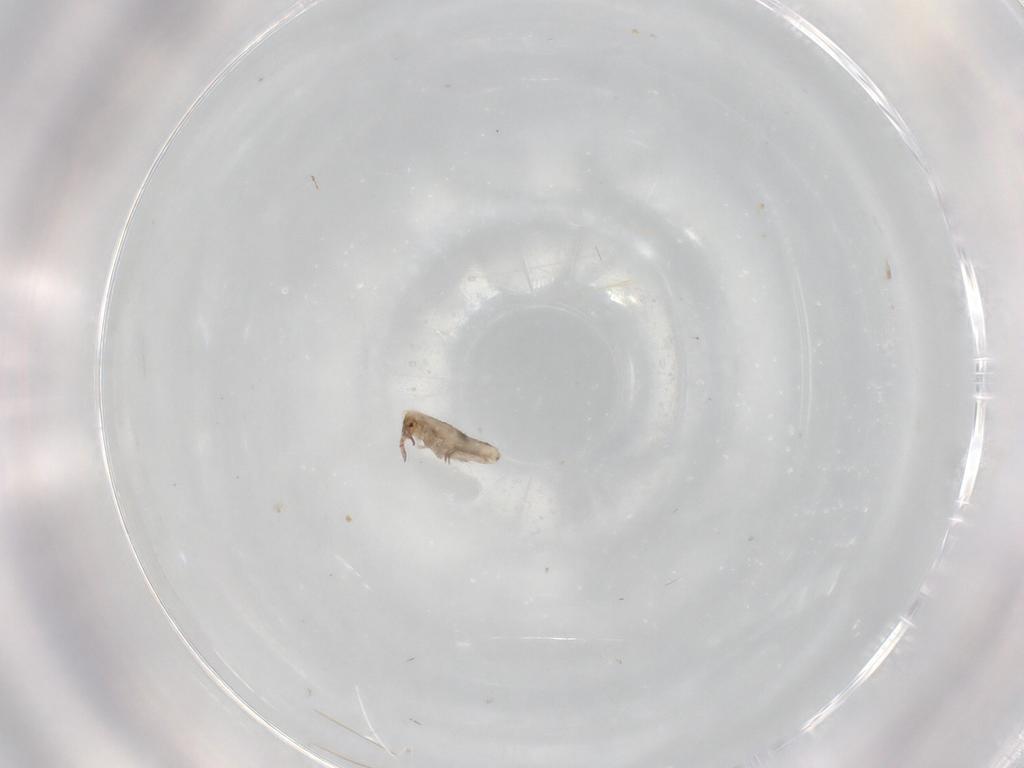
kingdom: Animalia
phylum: Arthropoda
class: Collembola
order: Entomobryomorpha
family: Entomobryidae
